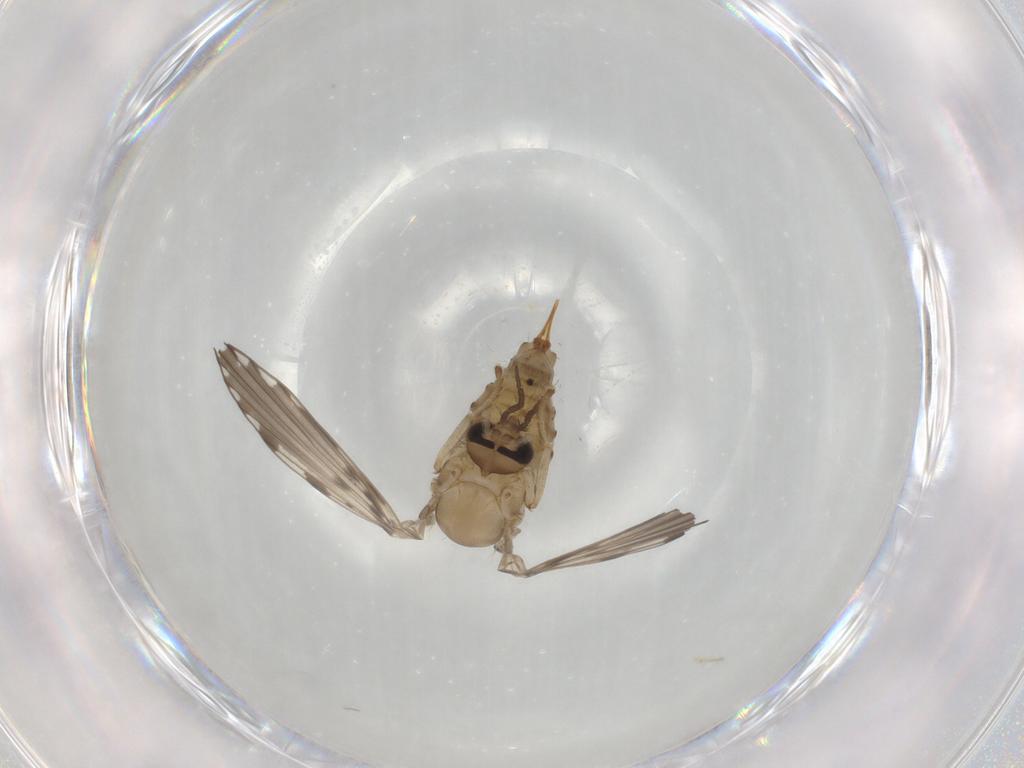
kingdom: Animalia
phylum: Arthropoda
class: Insecta
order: Diptera
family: Psychodidae
